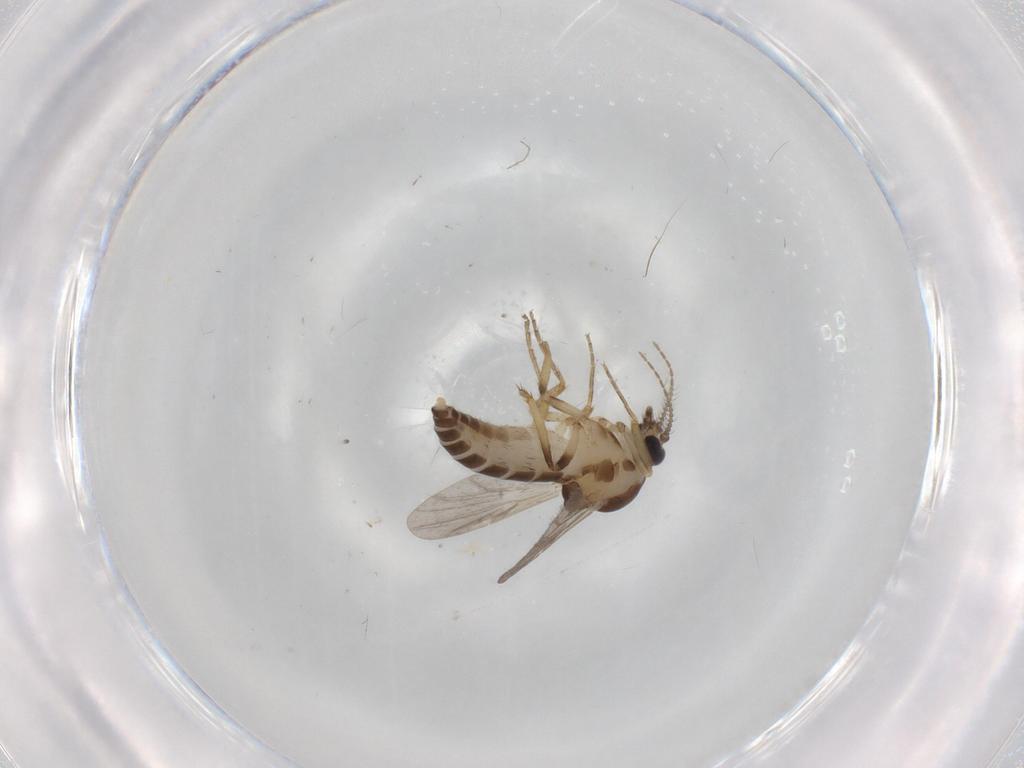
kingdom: Animalia
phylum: Arthropoda
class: Insecta
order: Diptera
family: Ceratopogonidae
